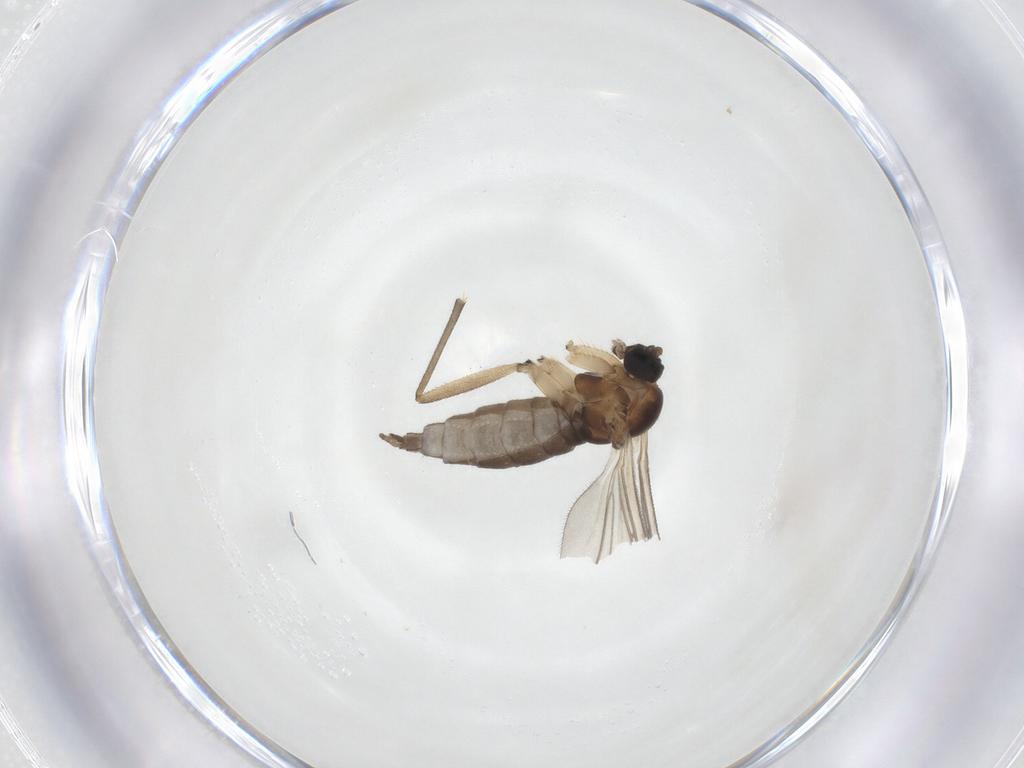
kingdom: Animalia
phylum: Arthropoda
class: Insecta
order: Diptera
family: Sciaridae
